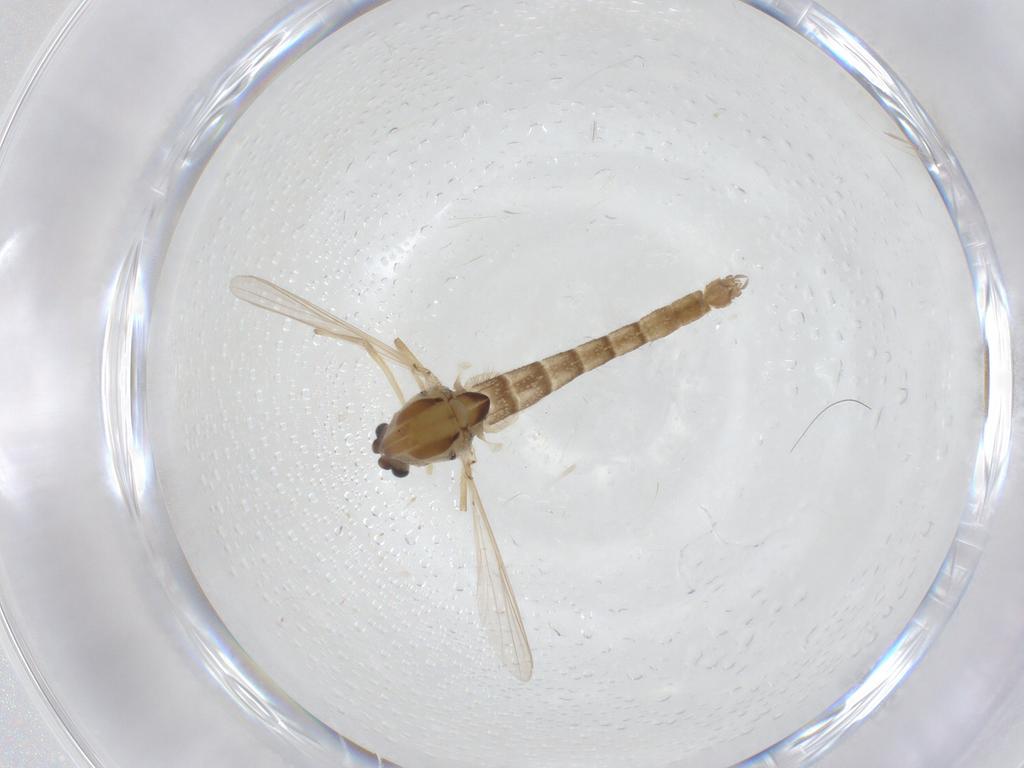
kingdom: Animalia
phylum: Arthropoda
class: Insecta
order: Diptera
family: Chironomidae
